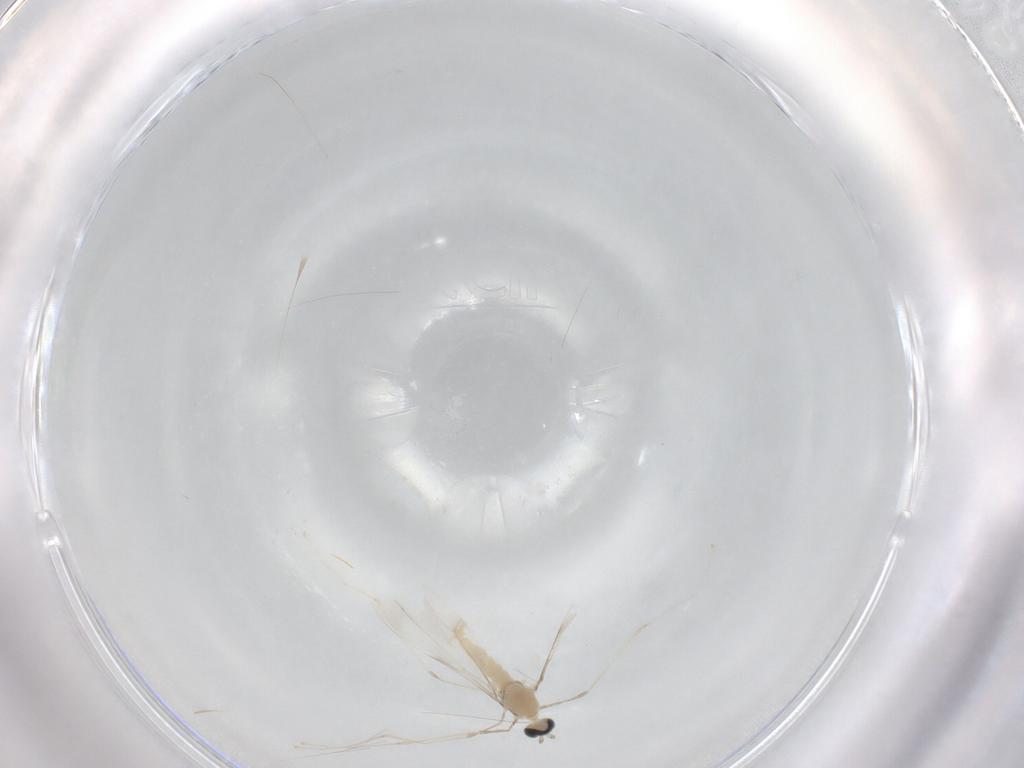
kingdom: Animalia
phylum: Arthropoda
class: Insecta
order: Diptera
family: Cecidomyiidae
